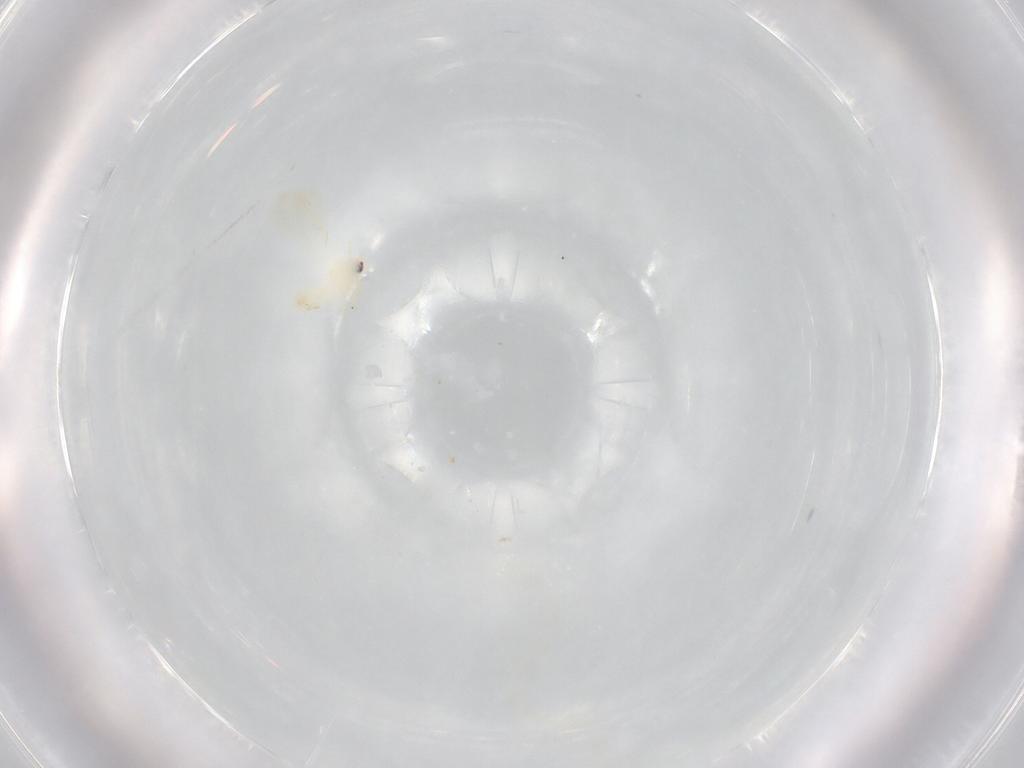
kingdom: Animalia
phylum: Arthropoda
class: Insecta
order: Hemiptera
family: Aleyrodidae
